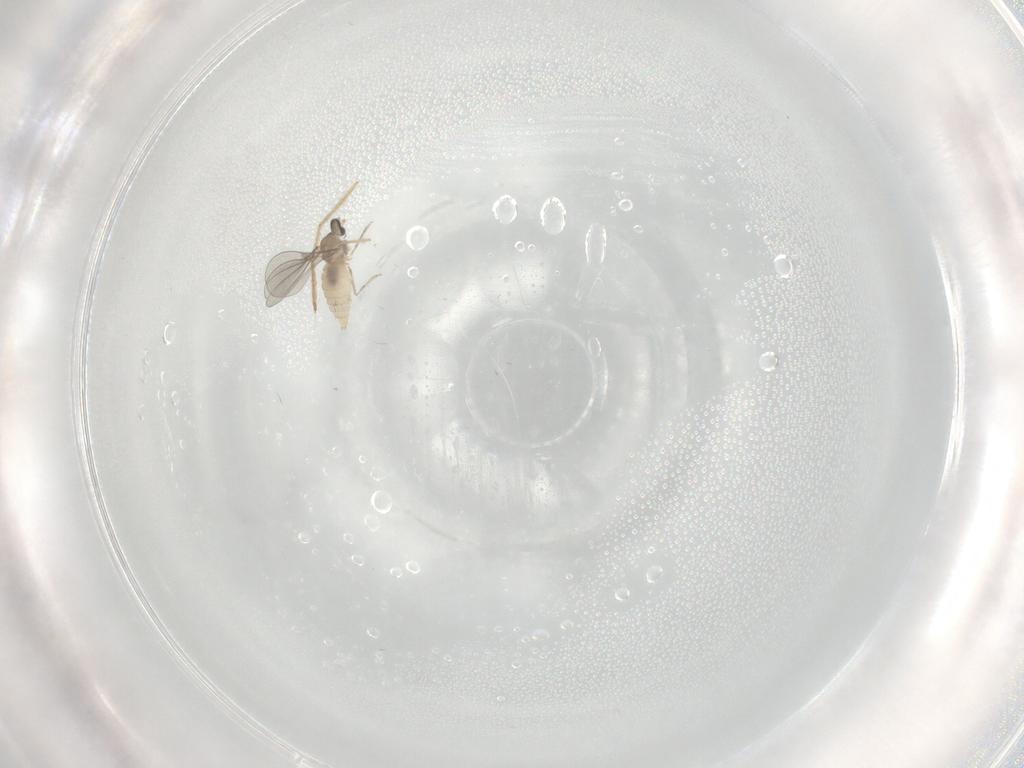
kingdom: Animalia
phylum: Arthropoda
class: Insecta
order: Diptera
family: Chironomidae
